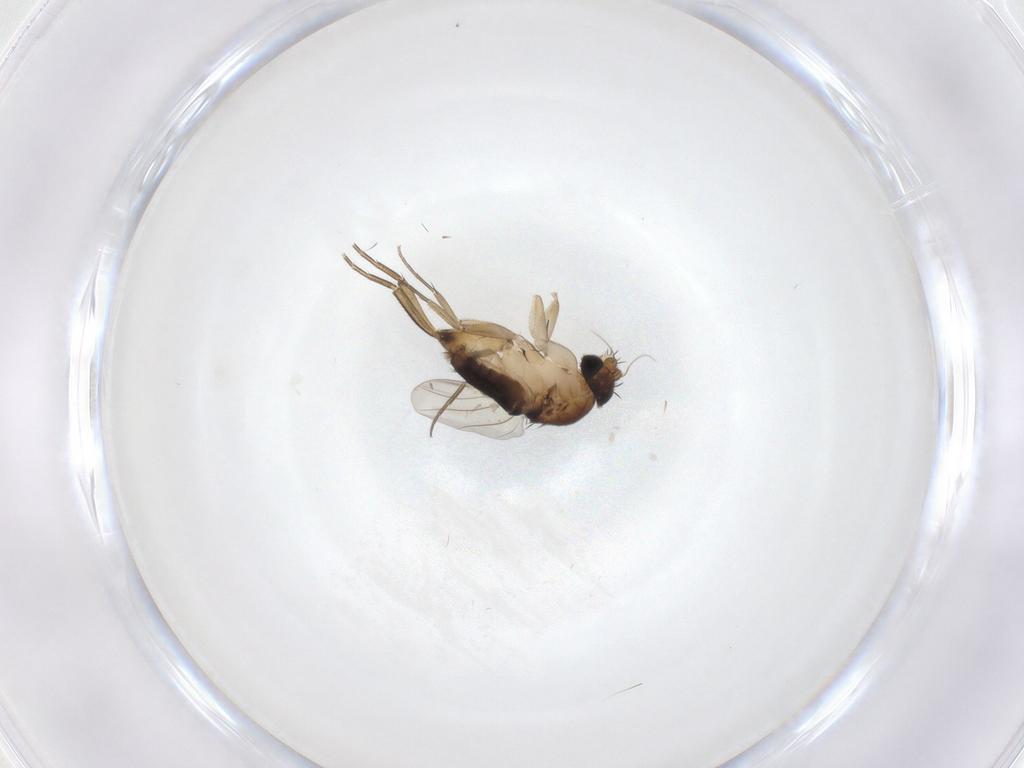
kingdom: Animalia
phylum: Arthropoda
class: Insecta
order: Diptera
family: Phoridae
